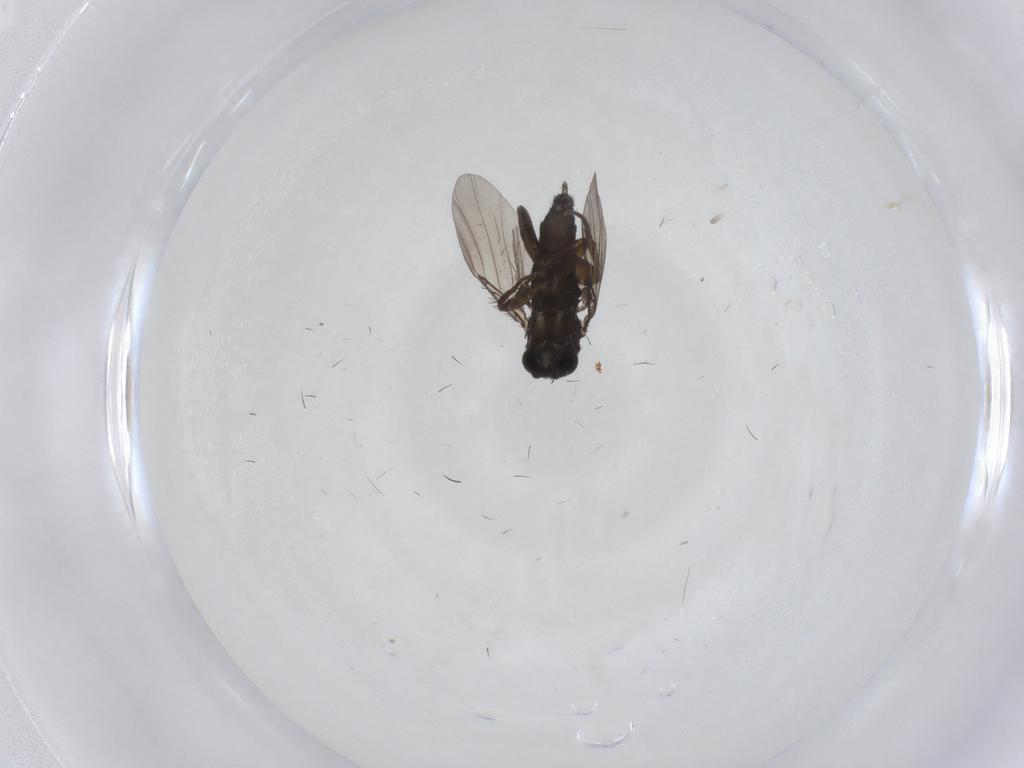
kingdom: Animalia
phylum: Arthropoda
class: Insecta
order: Diptera
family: Phoridae
